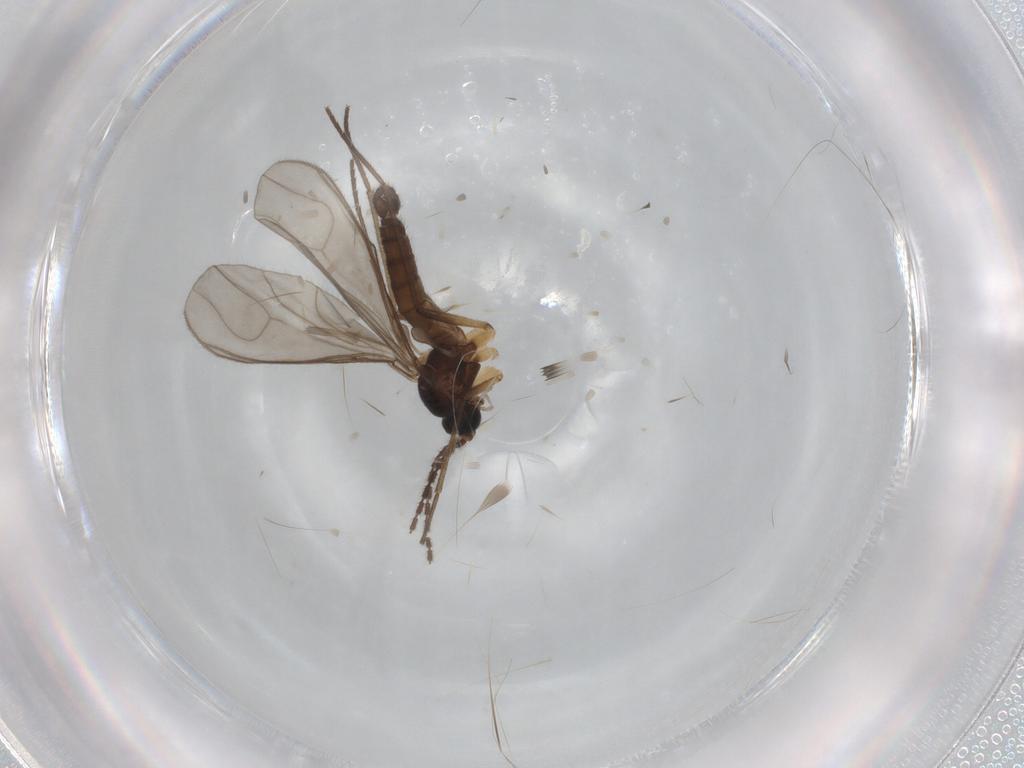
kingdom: Animalia
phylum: Arthropoda
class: Insecta
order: Diptera
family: Sciaridae
